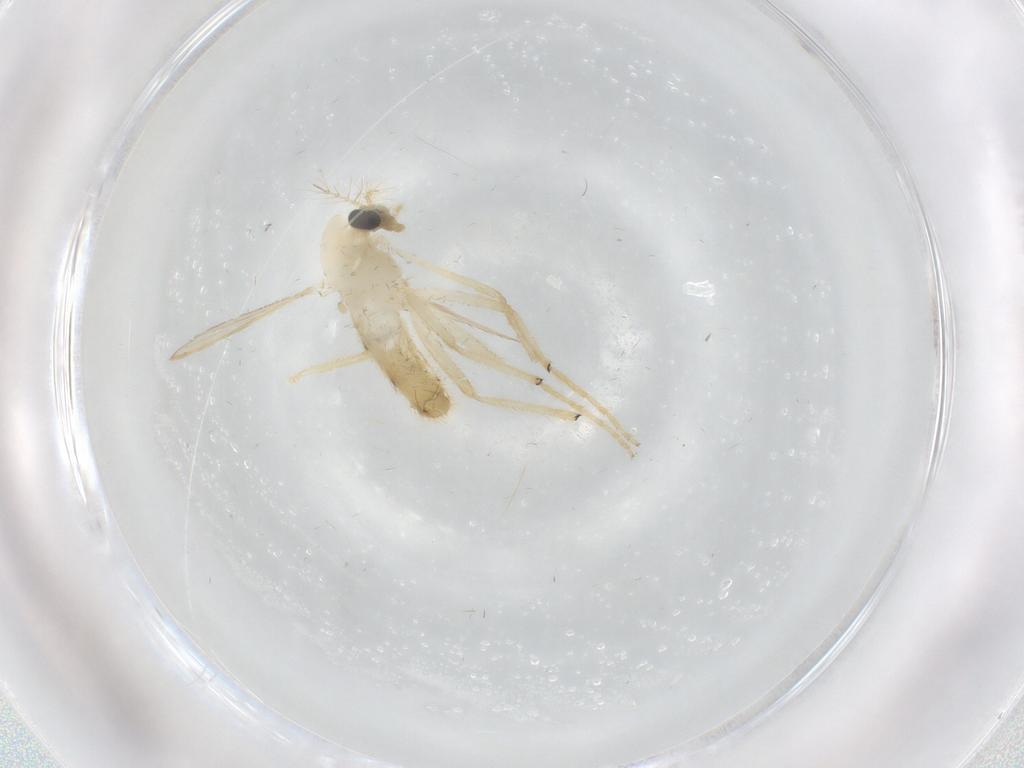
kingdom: Animalia
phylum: Arthropoda
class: Insecta
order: Diptera
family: Chironomidae
